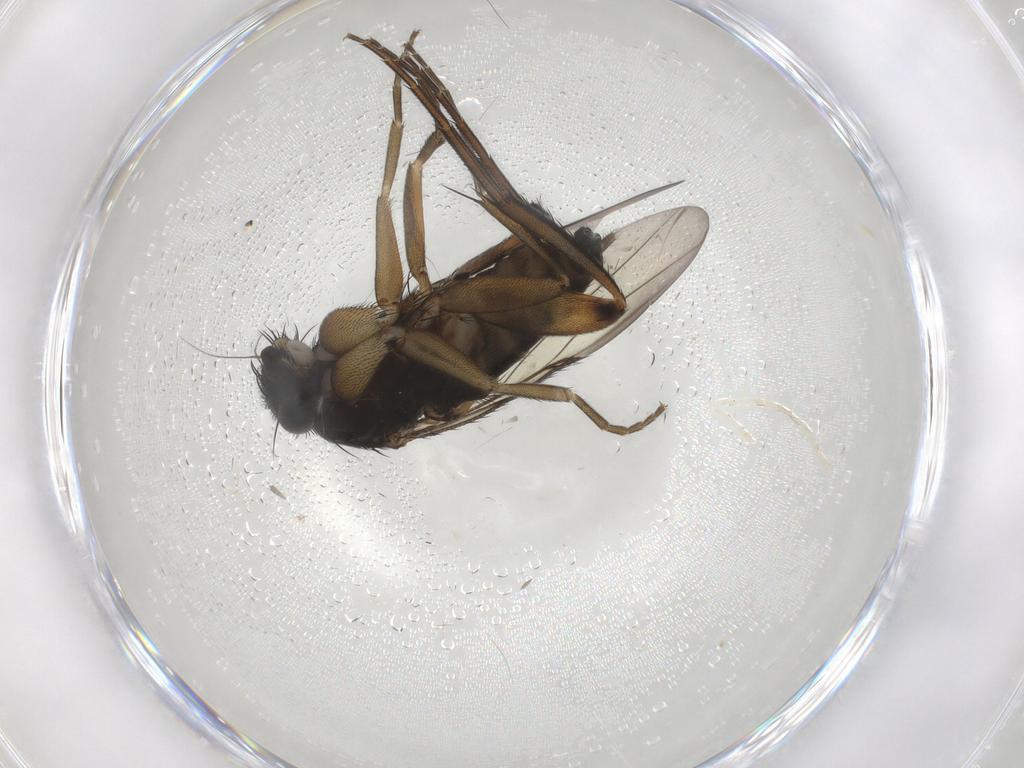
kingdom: Animalia
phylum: Arthropoda
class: Insecta
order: Diptera
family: Phoridae
